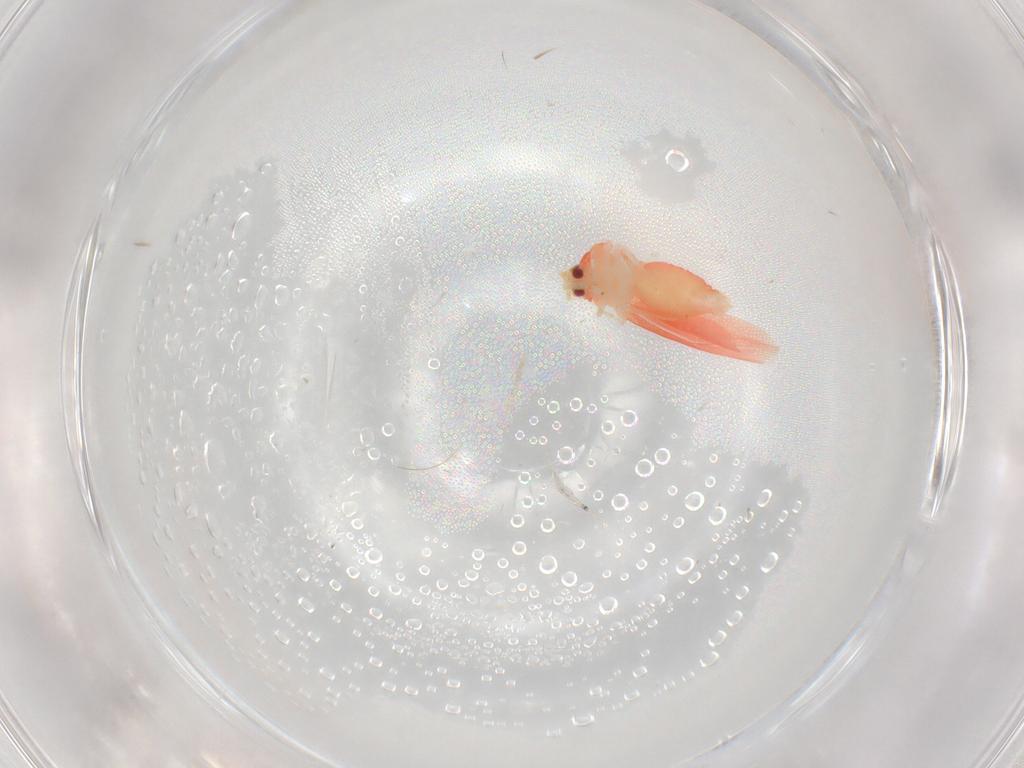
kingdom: Animalia
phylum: Arthropoda
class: Insecta
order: Hemiptera
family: Aleyrodidae
